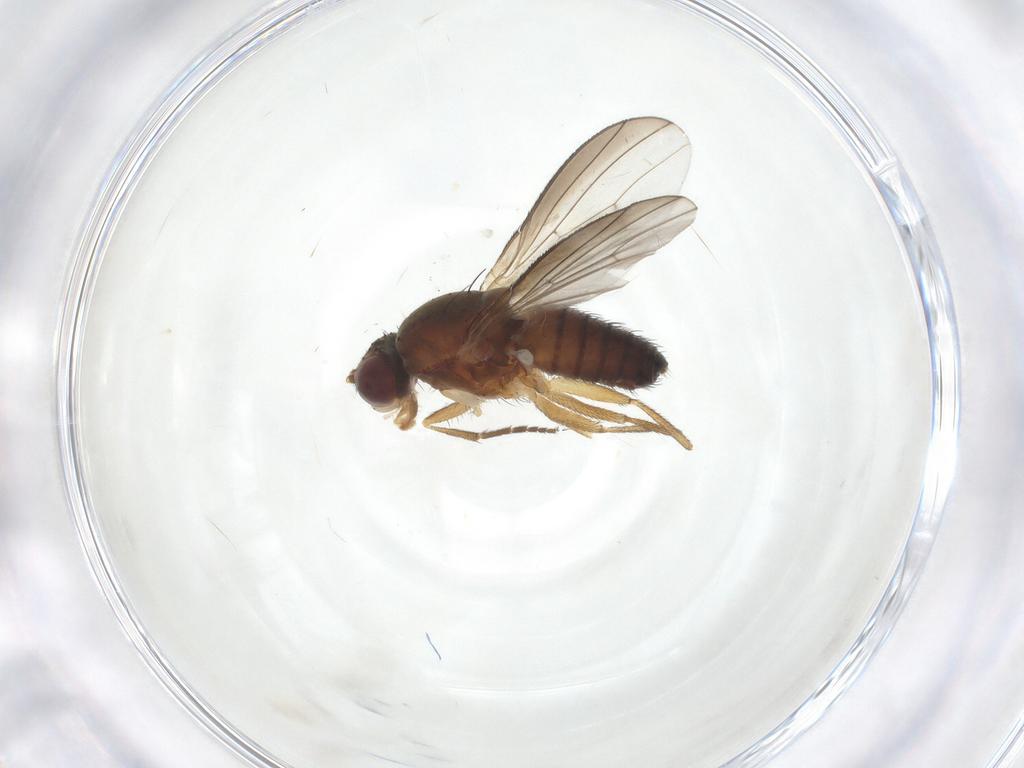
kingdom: Animalia
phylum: Arthropoda
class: Insecta
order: Diptera
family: Heleomyzidae
